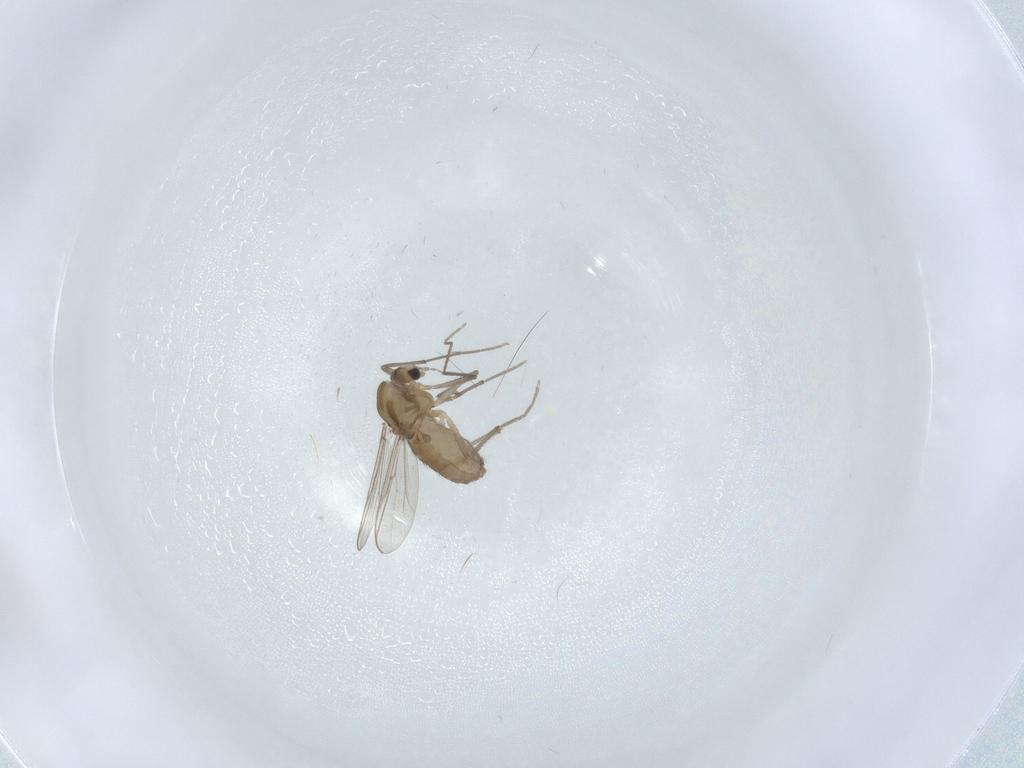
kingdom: Animalia
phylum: Arthropoda
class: Insecta
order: Diptera
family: Chironomidae
